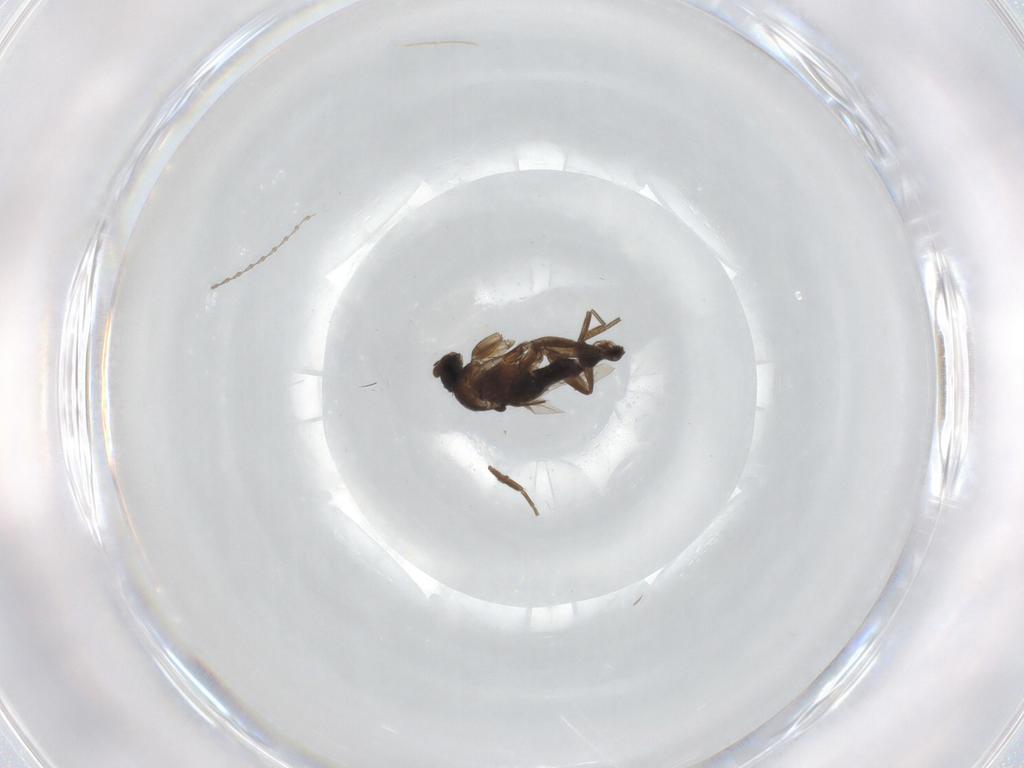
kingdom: Animalia
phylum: Arthropoda
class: Insecta
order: Diptera
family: Cecidomyiidae
